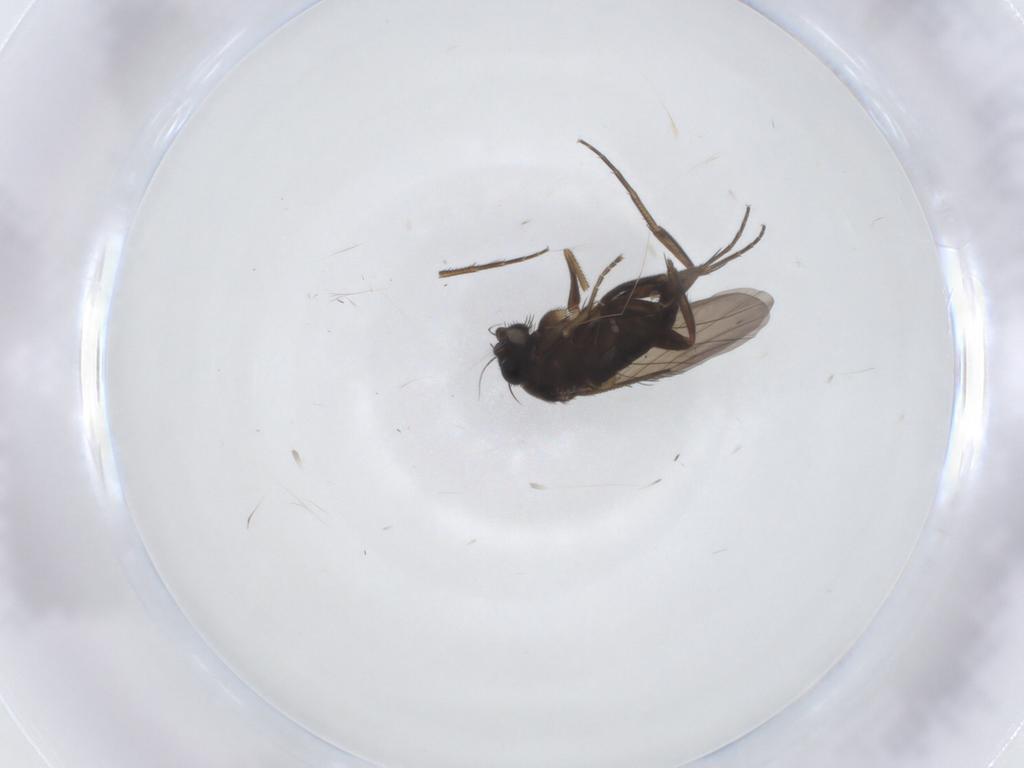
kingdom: Animalia
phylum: Arthropoda
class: Insecta
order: Diptera
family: Phoridae
